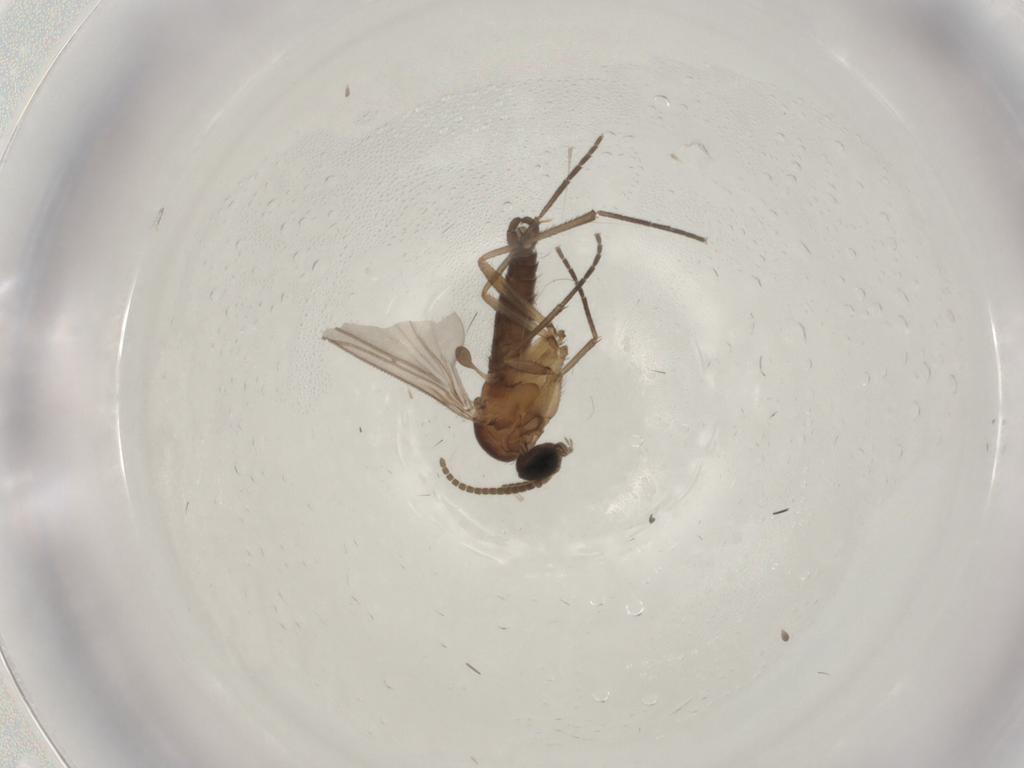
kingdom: Animalia
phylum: Arthropoda
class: Insecta
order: Diptera
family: Sciaridae
